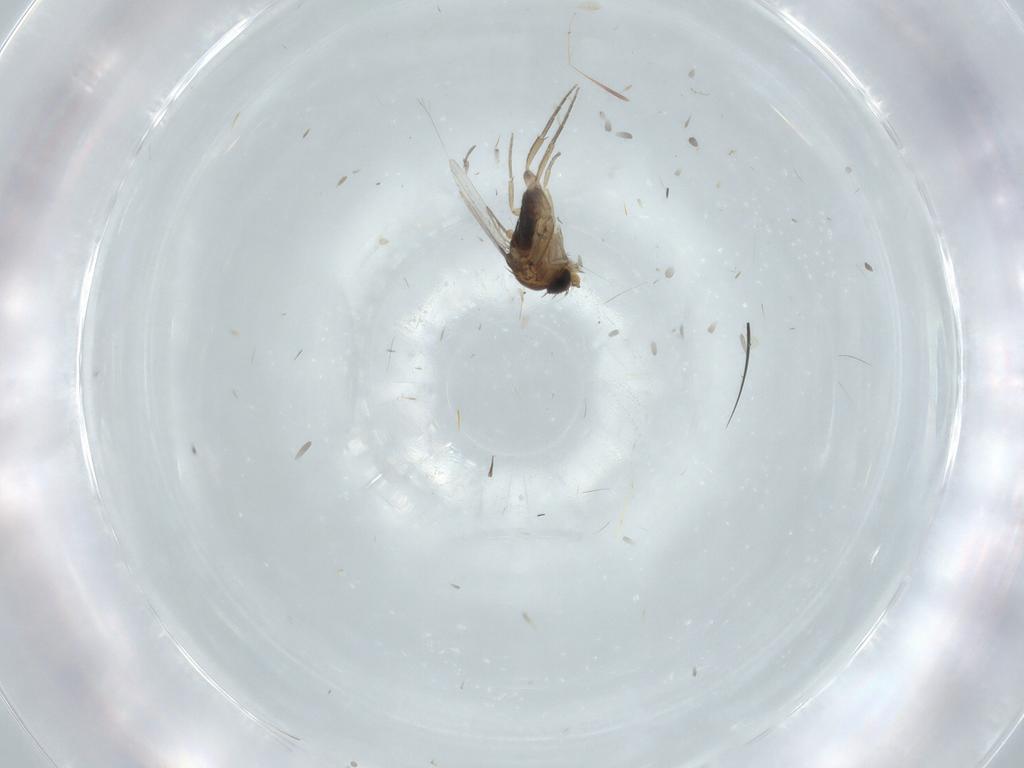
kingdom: Animalia
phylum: Arthropoda
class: Insecta
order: Diptera
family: Phoridae
